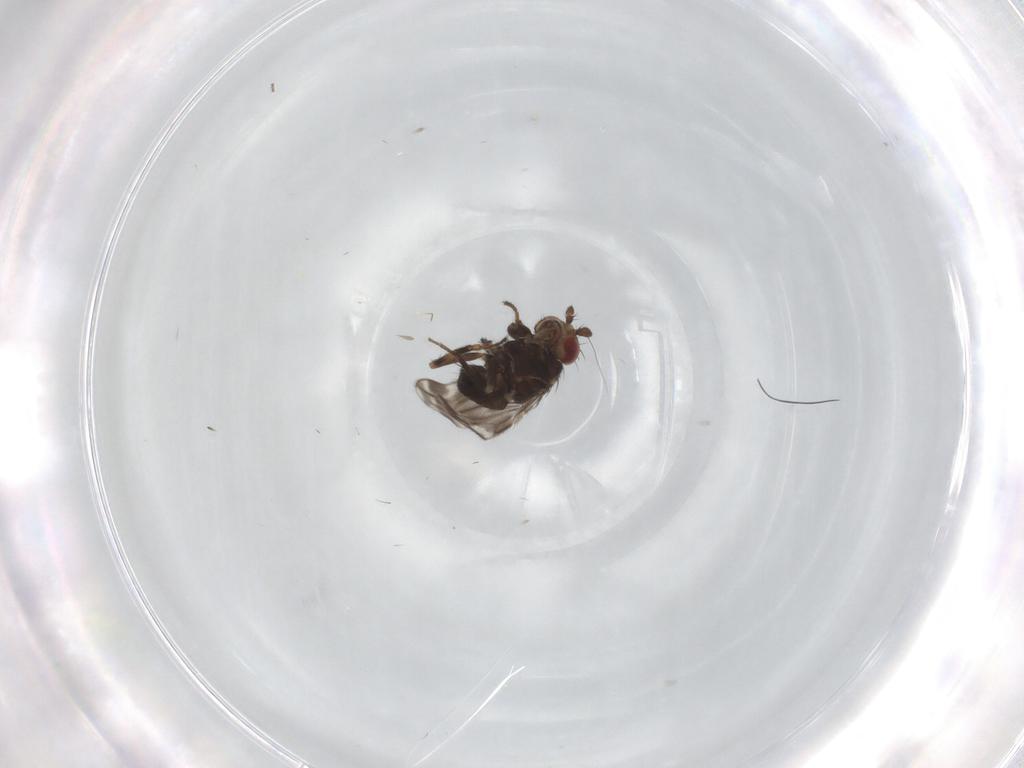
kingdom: Animalia
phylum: Arthropoda
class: Insecta
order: Diptera
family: Sphaeroceridae
